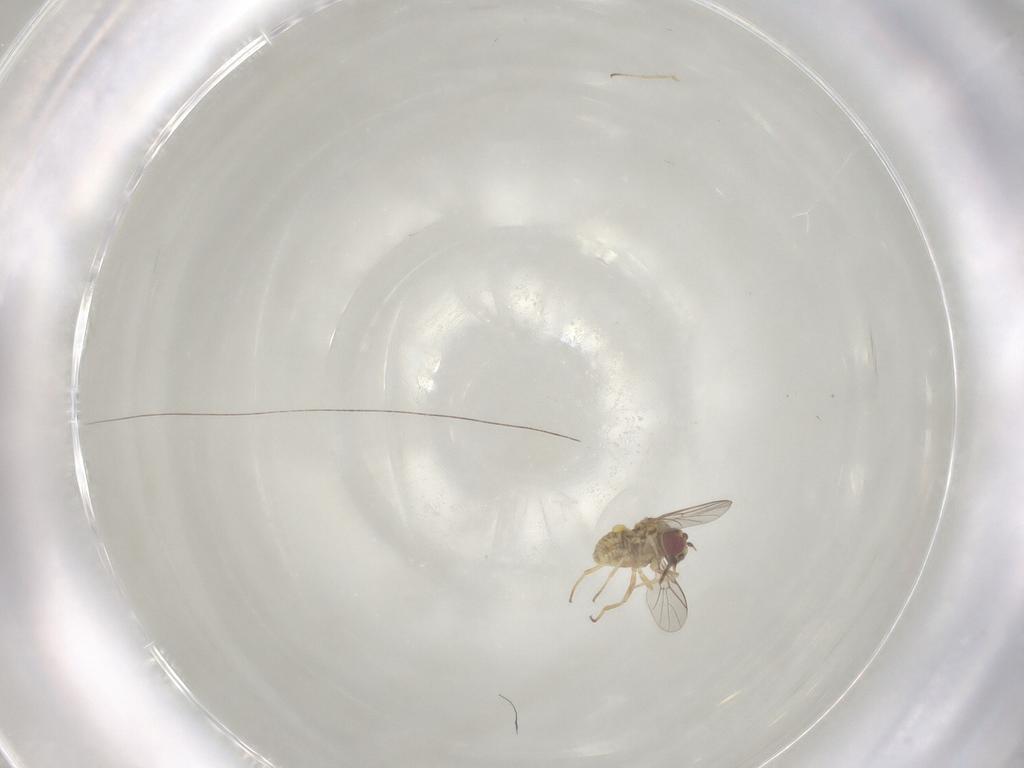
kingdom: Animalia
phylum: Arthropoda
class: Insecta
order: Diptera
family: Mythicomyiidae
